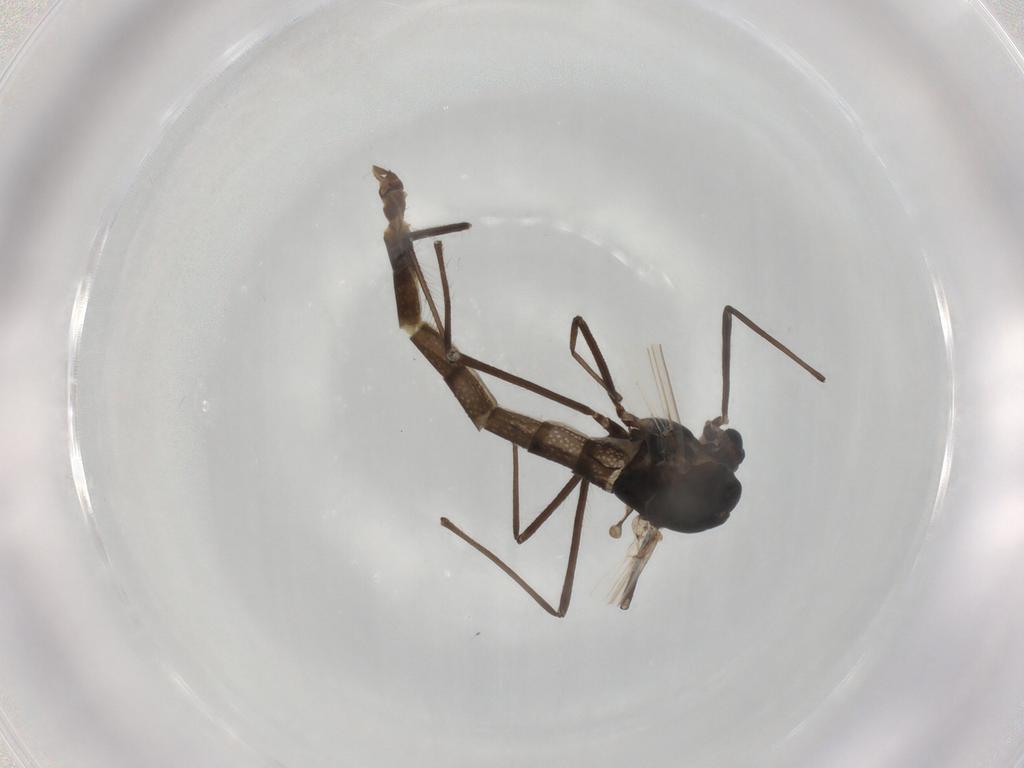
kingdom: Animalia
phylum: Arthropoda
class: Insecta
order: Diptera
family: Chironomidae
